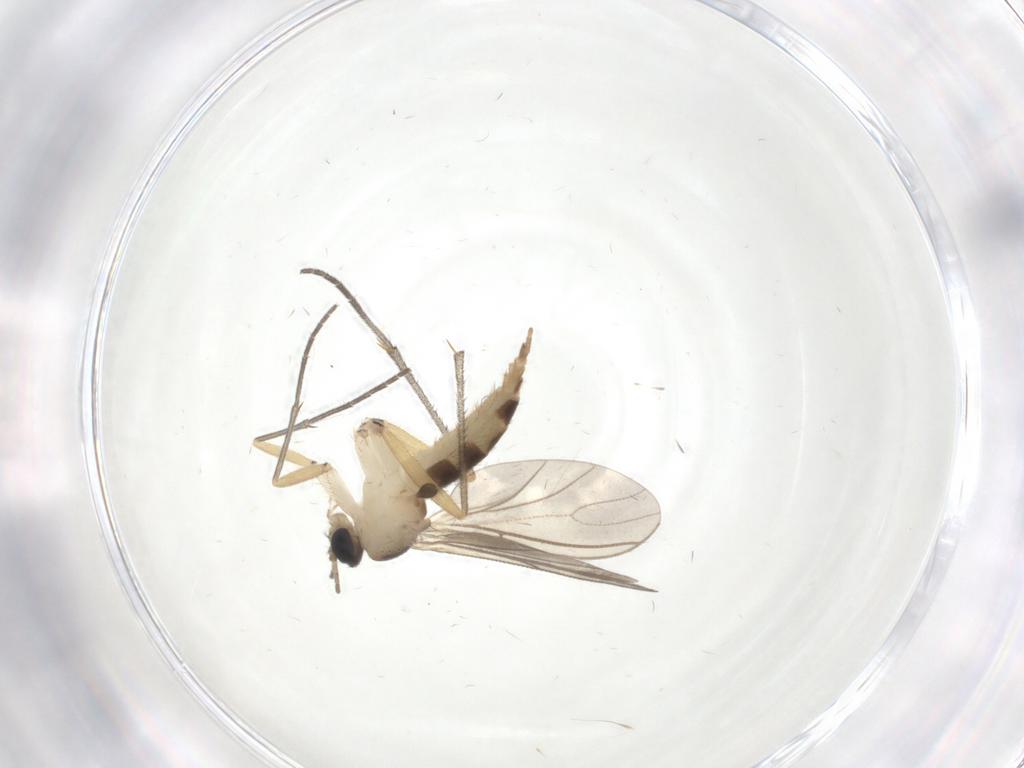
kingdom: Animalia
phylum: Arthropoda
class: Insecta
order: Diptera
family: Sciaridae
